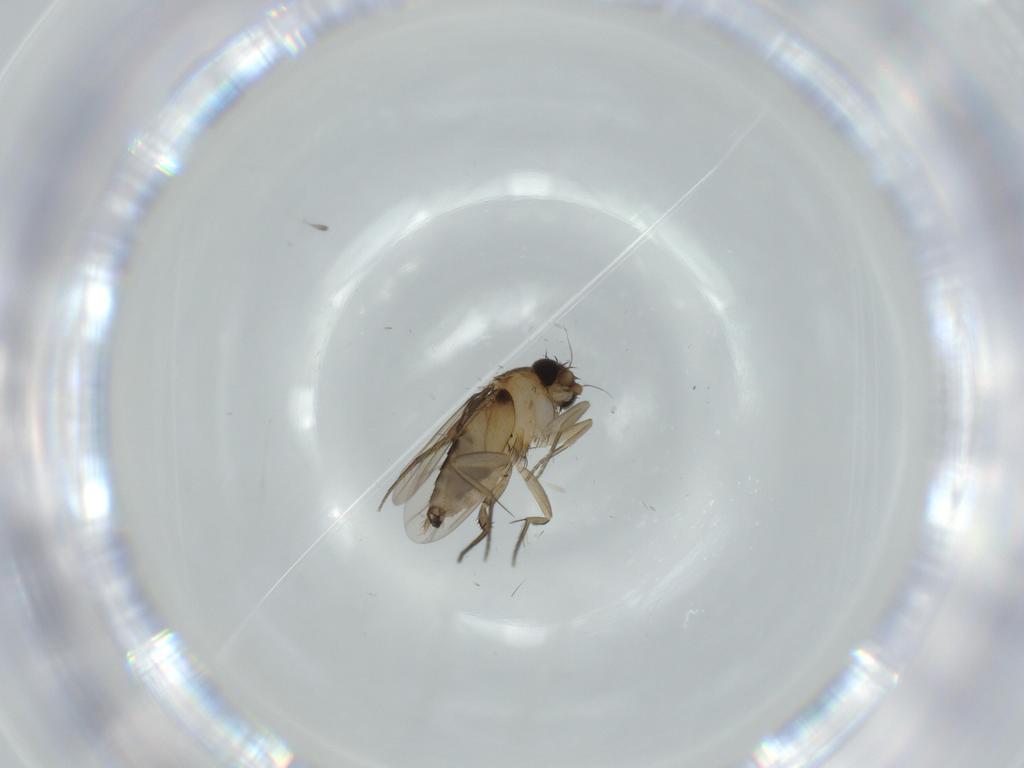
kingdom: Animalia
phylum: Arthropoda
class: Insecta
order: Diptera
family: Phoridae
